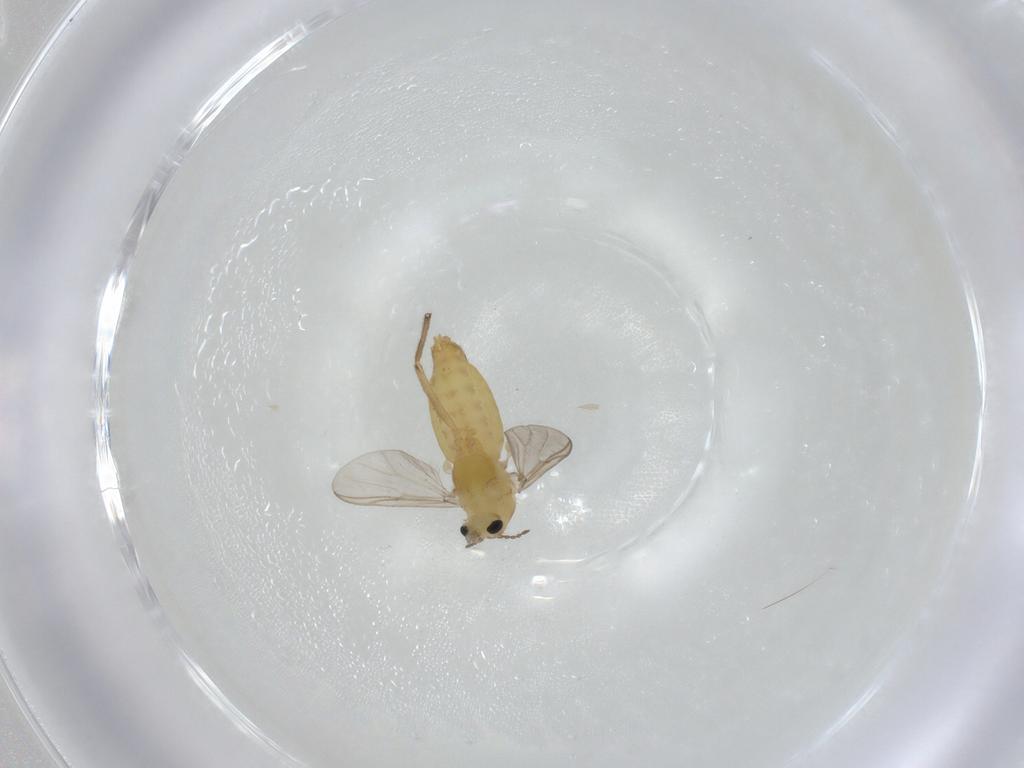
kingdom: Animalia
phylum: Arthropoda
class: Insecta
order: Diptera
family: Chironomidae
